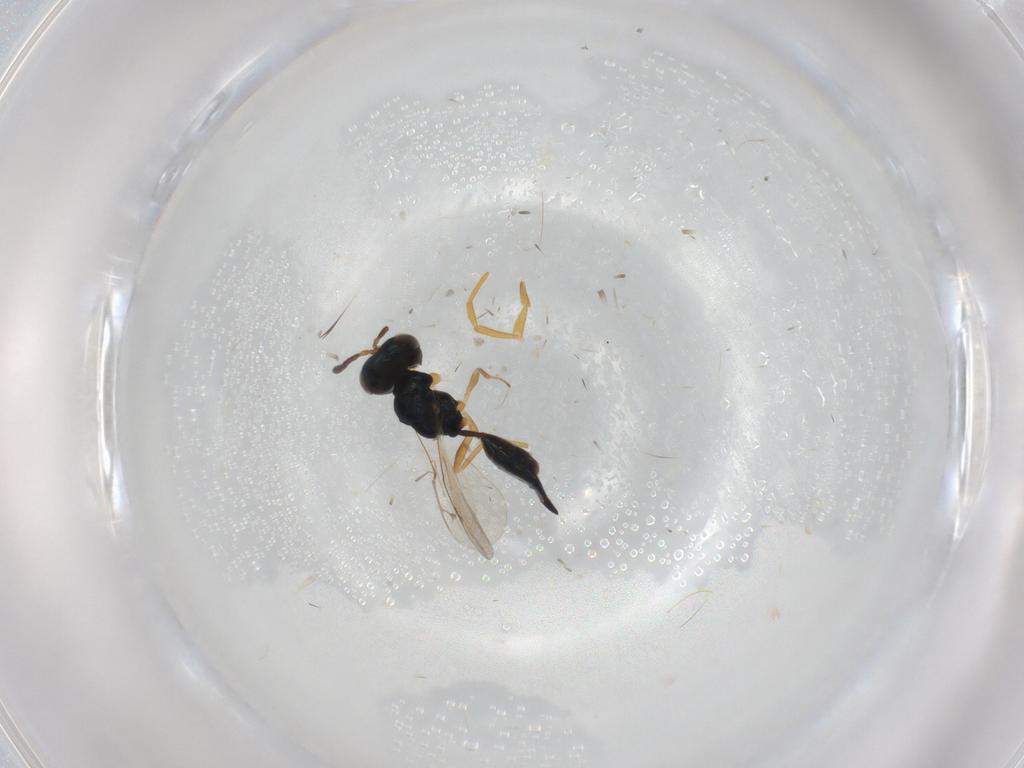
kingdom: Animalia
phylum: Arthropoda
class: Insecta
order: Hymenoptera
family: Ichneumonidae
